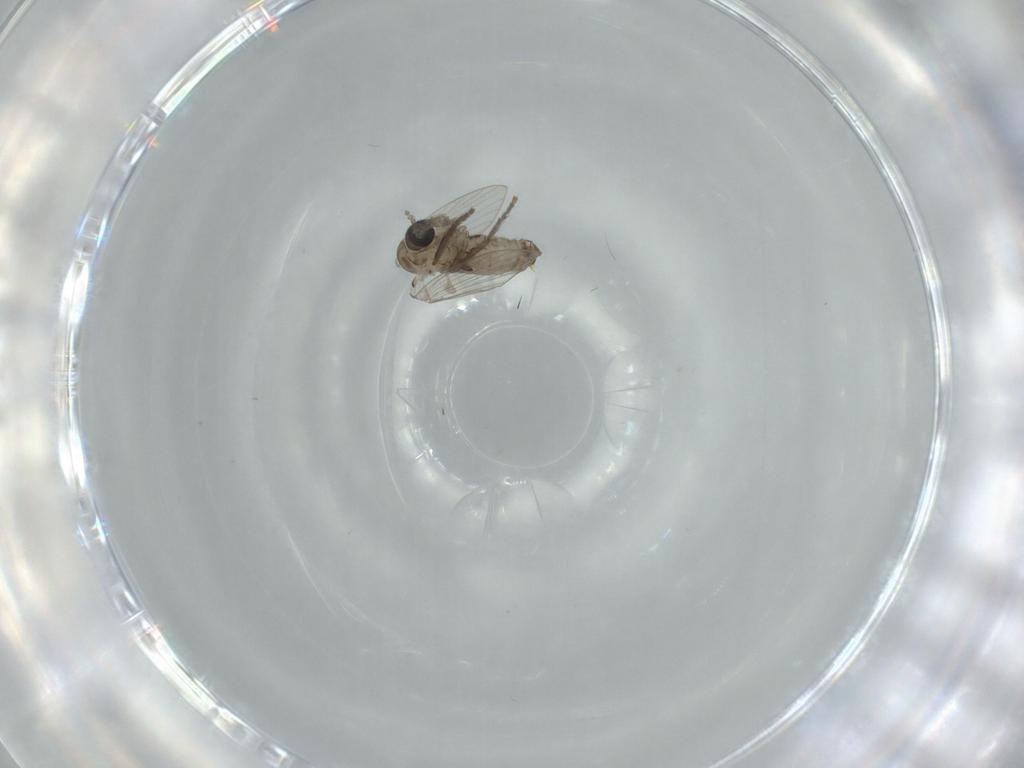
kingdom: Animalia
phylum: Arthropoda
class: Insecta
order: Diptera
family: Psychodidae
